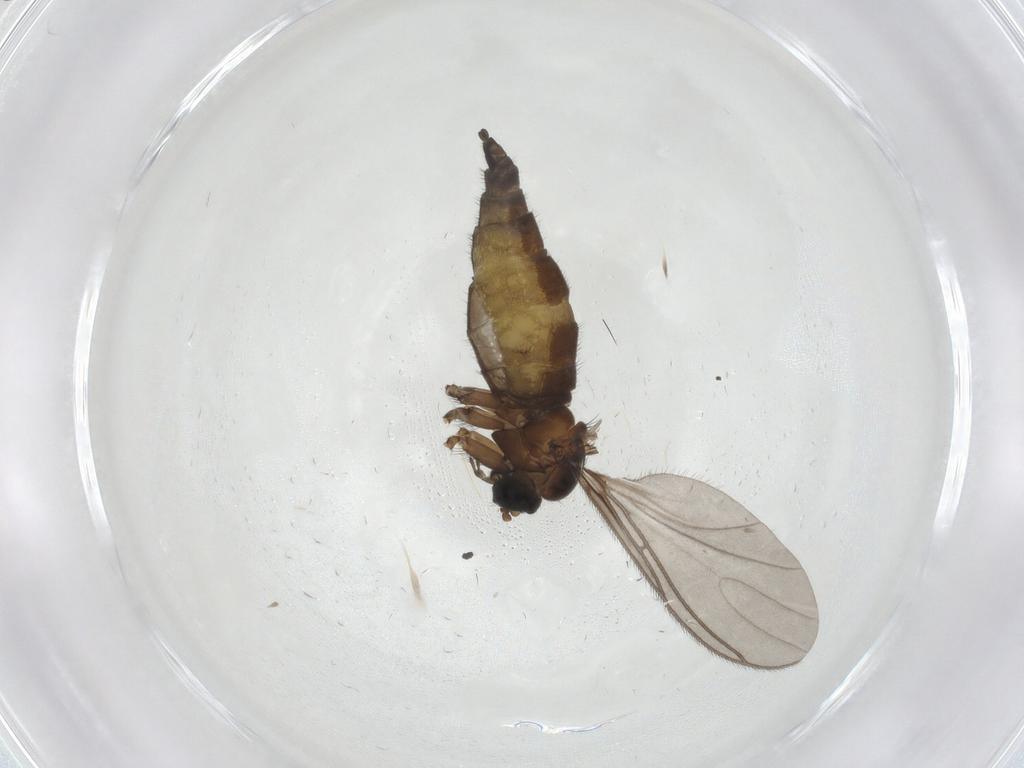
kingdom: Animalia
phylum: Arthropoda
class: Insecta
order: Diptera
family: Sciaridae
